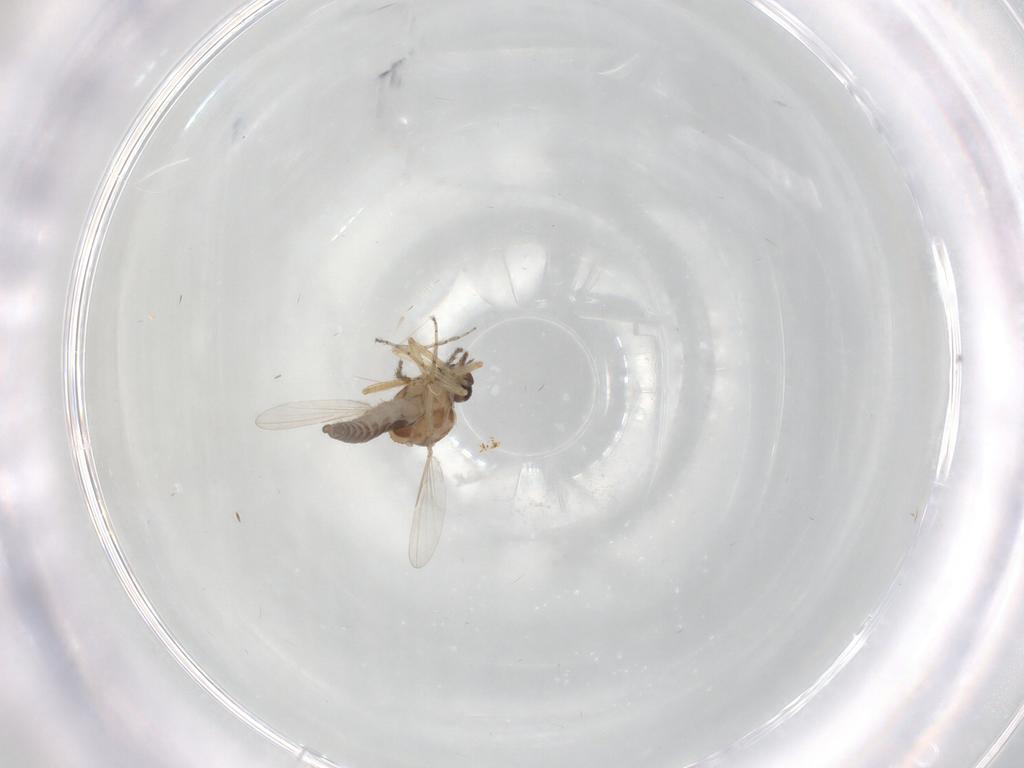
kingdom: Animalia
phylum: Arthropoda
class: Insecta
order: Diptera
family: Phoridae
